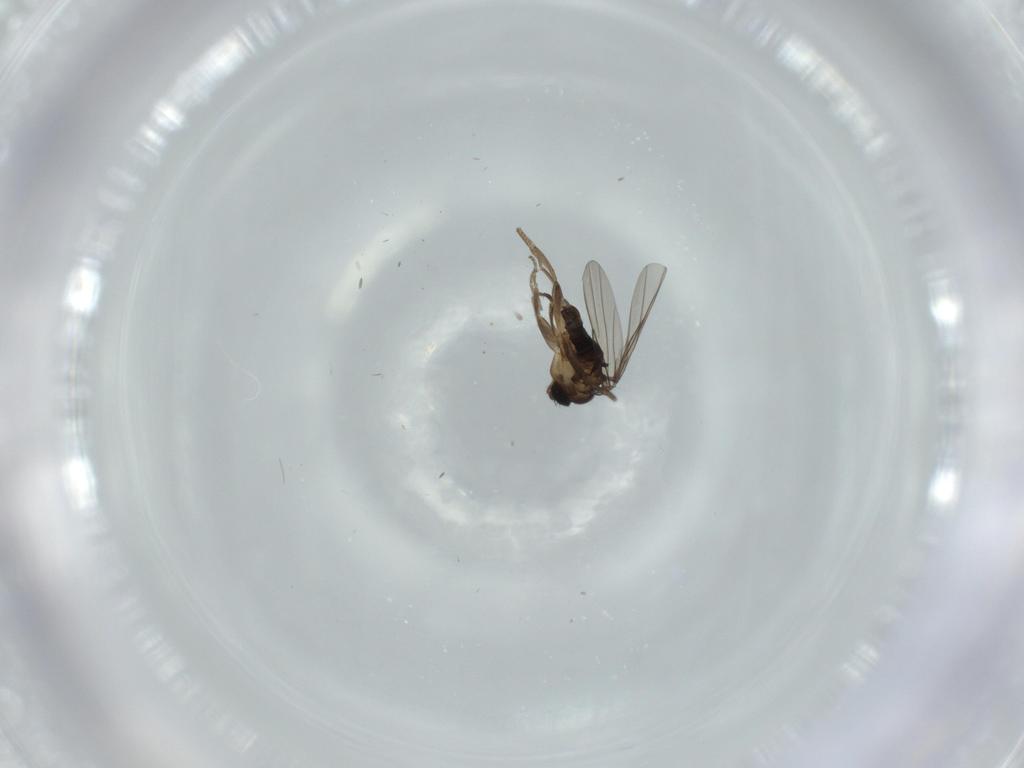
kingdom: Animalia
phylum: Arthropoda
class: Insecta
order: Diptera
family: Phoridae
